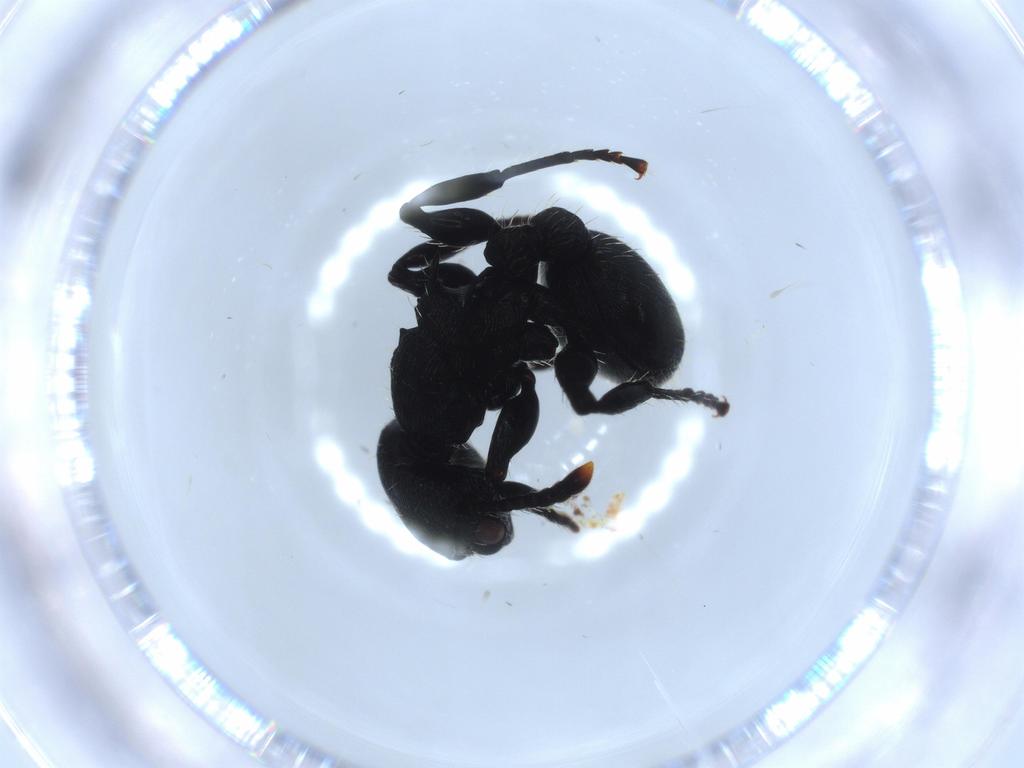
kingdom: Animalia
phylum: Arthropoda
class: Insecta
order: Hymenoptera
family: Formicidae
